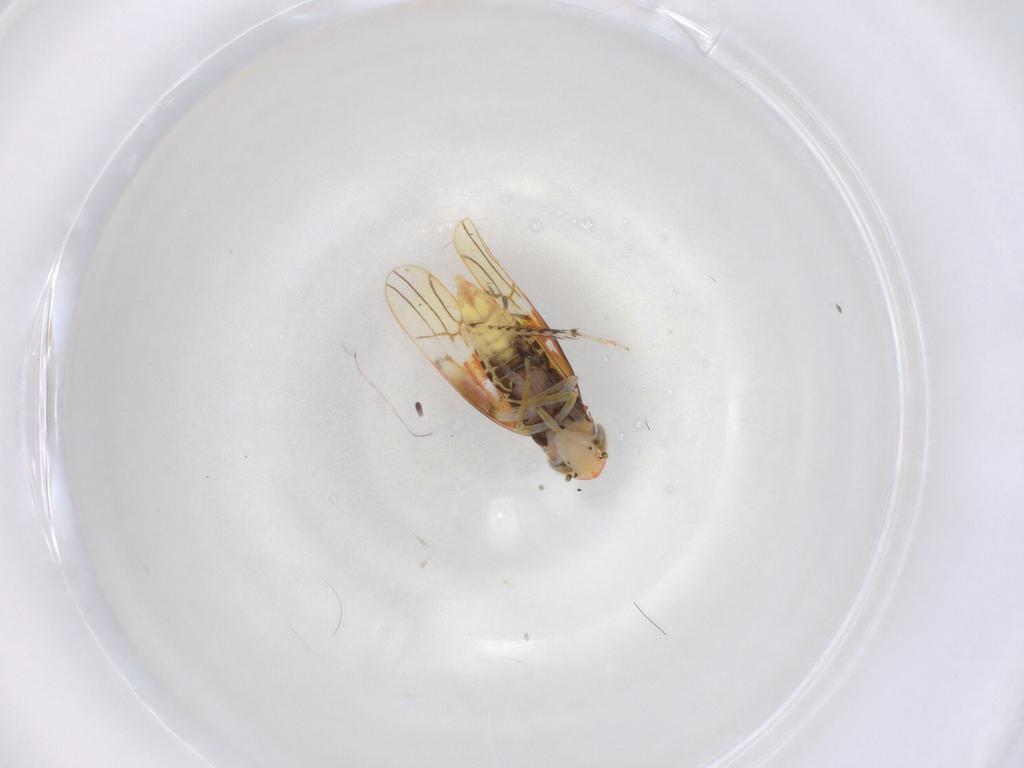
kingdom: Animalia
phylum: Arthropoda
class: Insecta
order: Hemiptera
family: Cicadellidae
